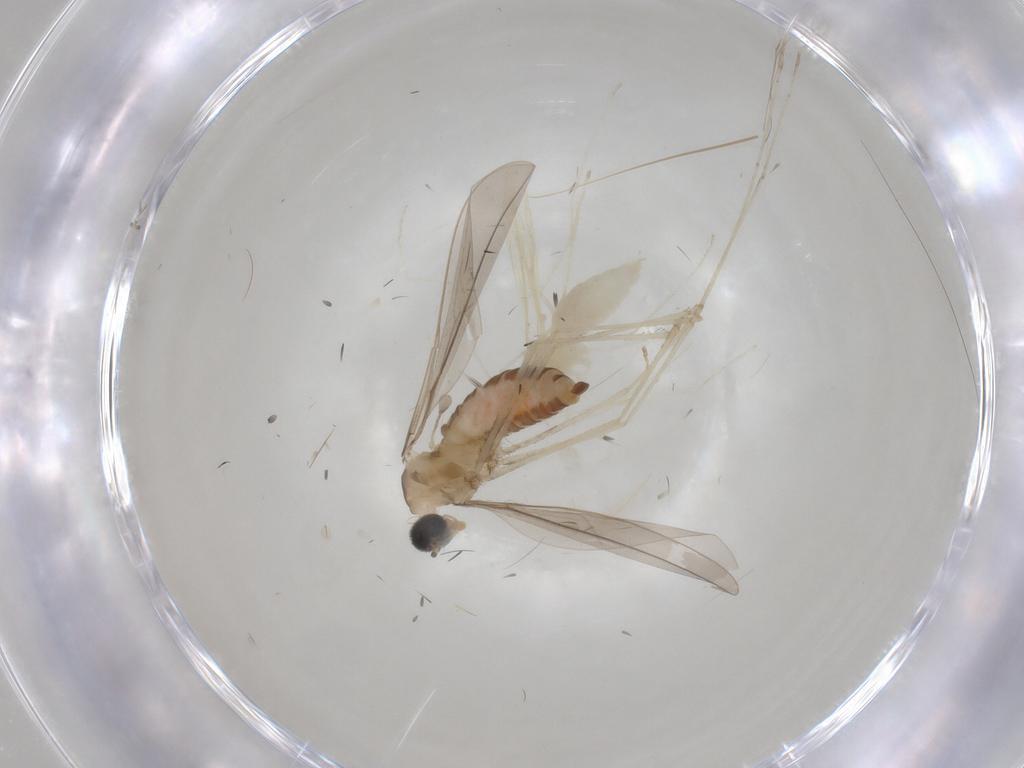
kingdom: Animalia
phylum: Arthropoda
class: Insecta
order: Diptera
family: Cecidomyiidae
